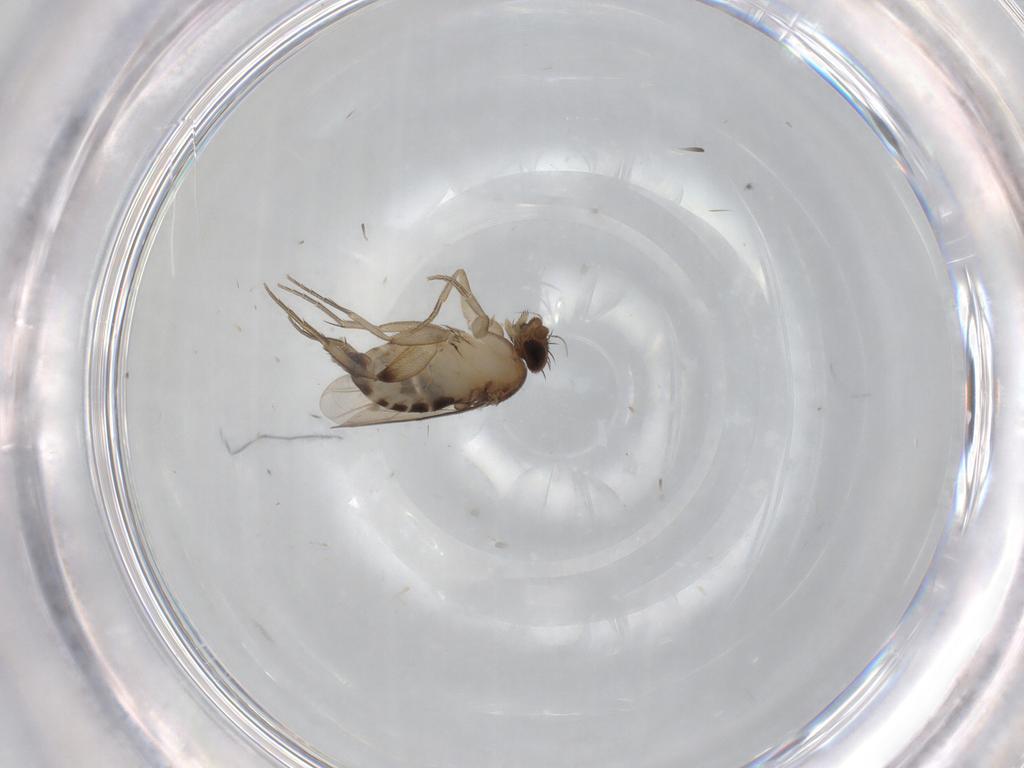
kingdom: Animalia
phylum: Arthropoda
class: Insecta
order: Diptera
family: Phoridae
